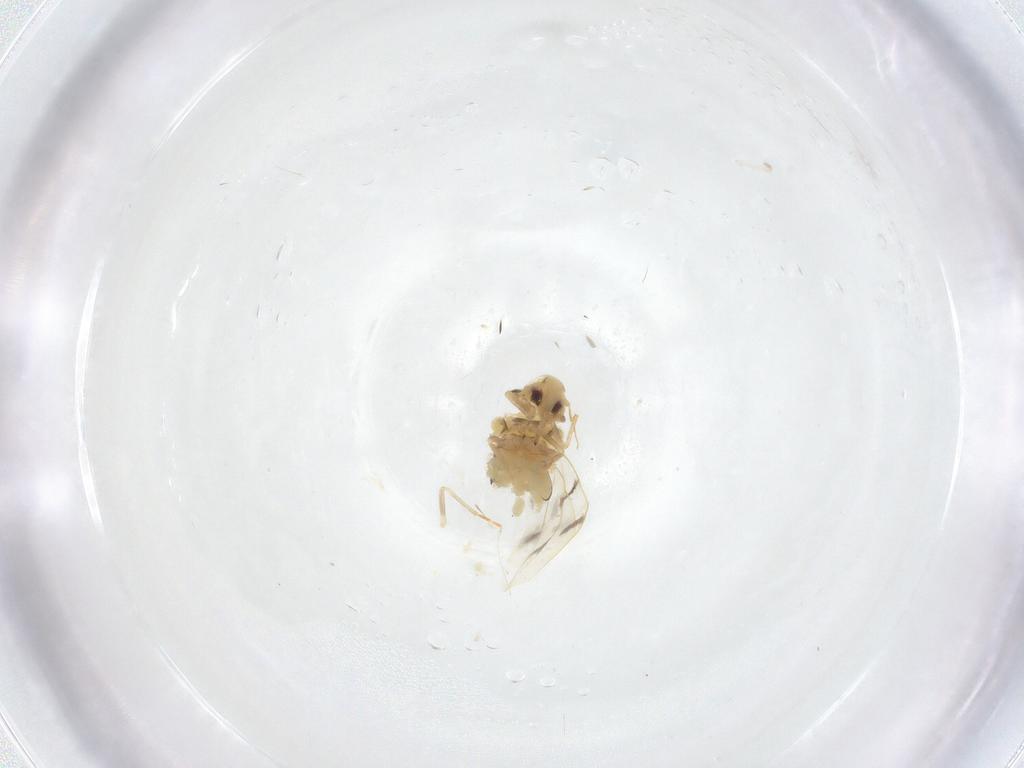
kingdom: Animalia
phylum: Arthropoda
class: Insecta
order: Hemiptera
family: Aleyrodidae
